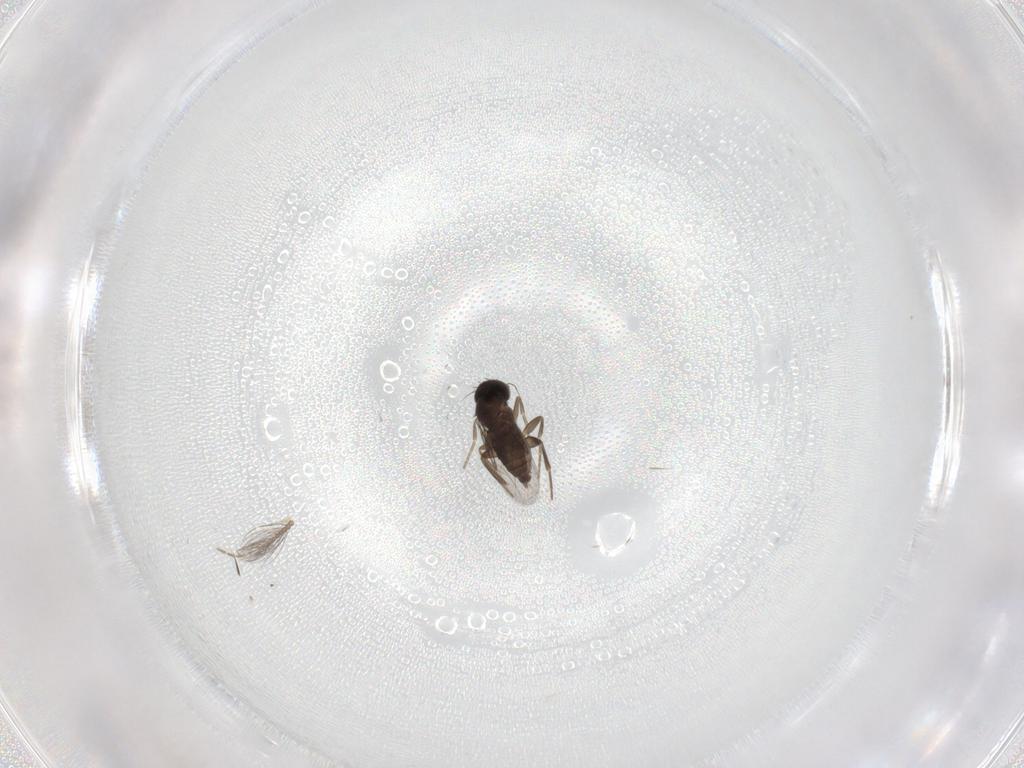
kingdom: Animalia
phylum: Arthropoda
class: Insecta
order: Diptera
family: Phoridae
